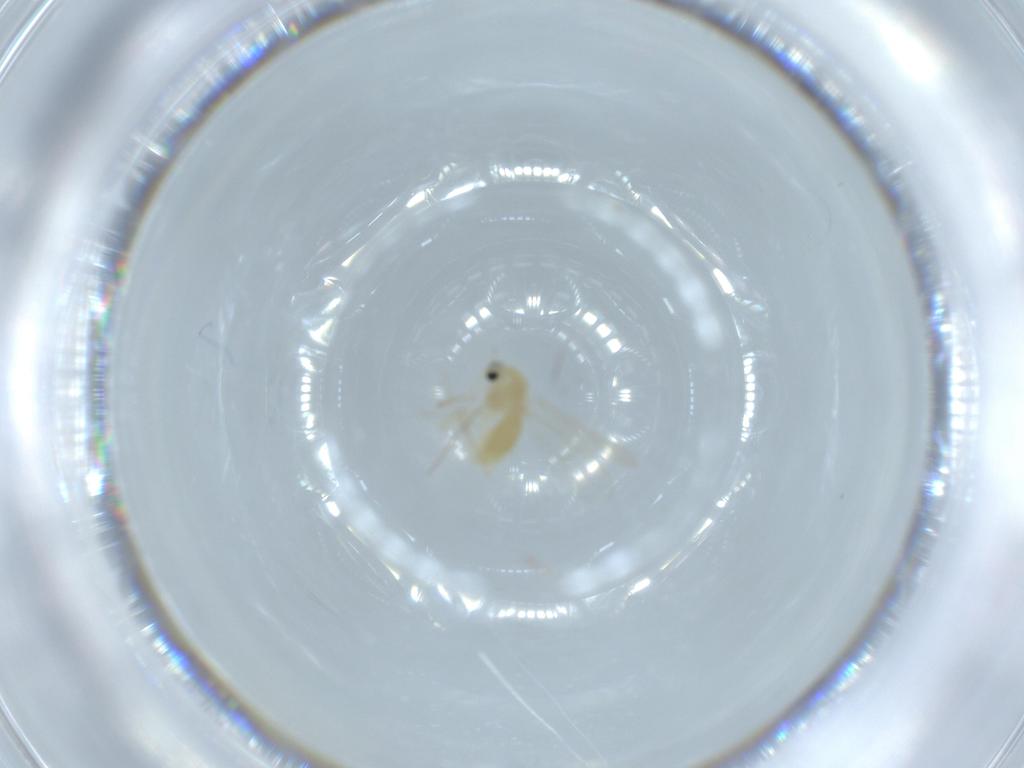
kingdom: Animalia
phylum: Arthropoda
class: Insecta
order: Diptera
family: Chironomidae
